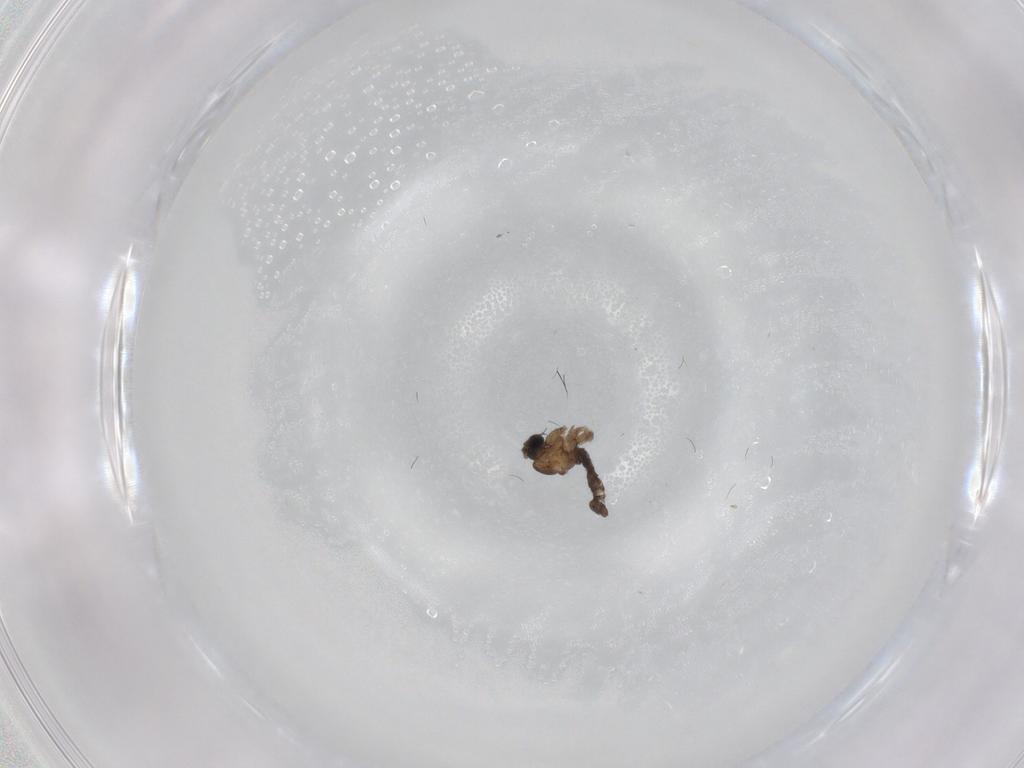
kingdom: Animalia
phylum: Arthropoda
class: Insecta
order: Diptera
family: Sciaridae
